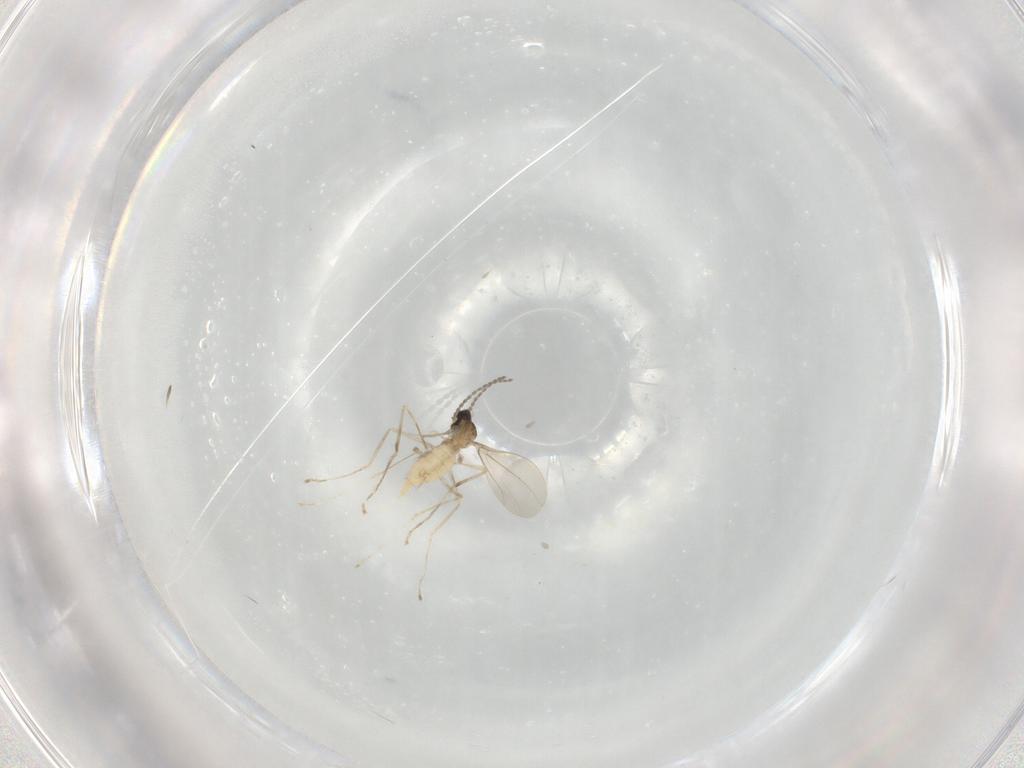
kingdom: Animalia
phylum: Arthropoda
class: Insecta
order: Diptera
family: Cecidomyiidae
